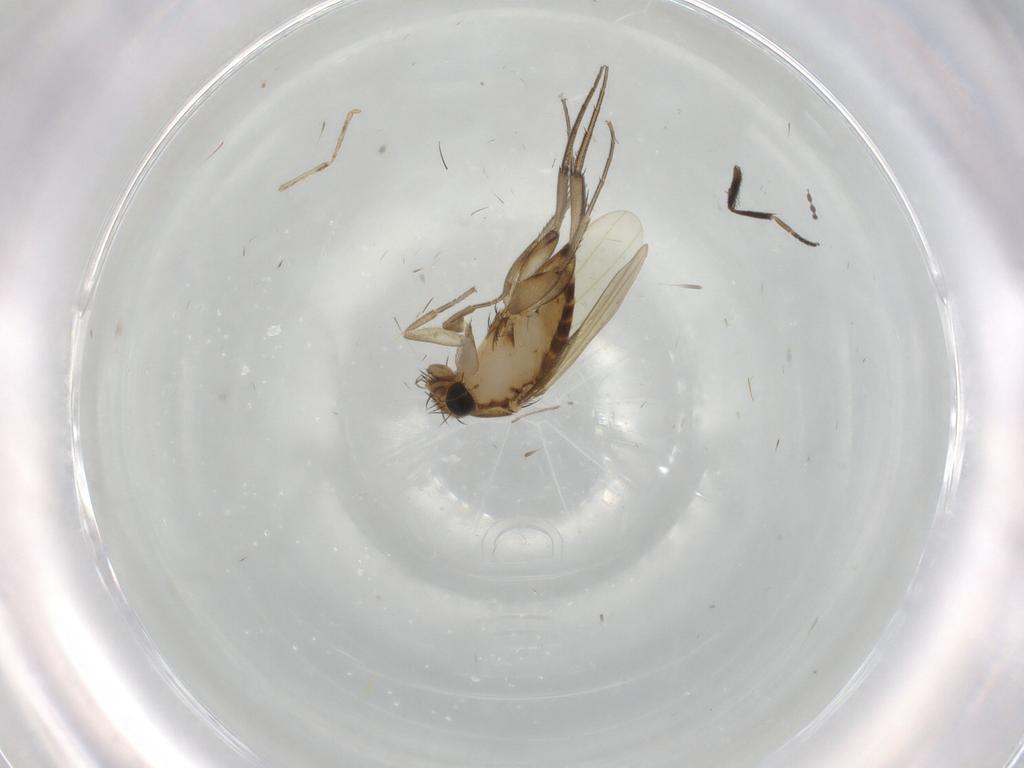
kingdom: Animalia
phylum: Arthropoda
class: Insecta
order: Diptera
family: Phoridae
